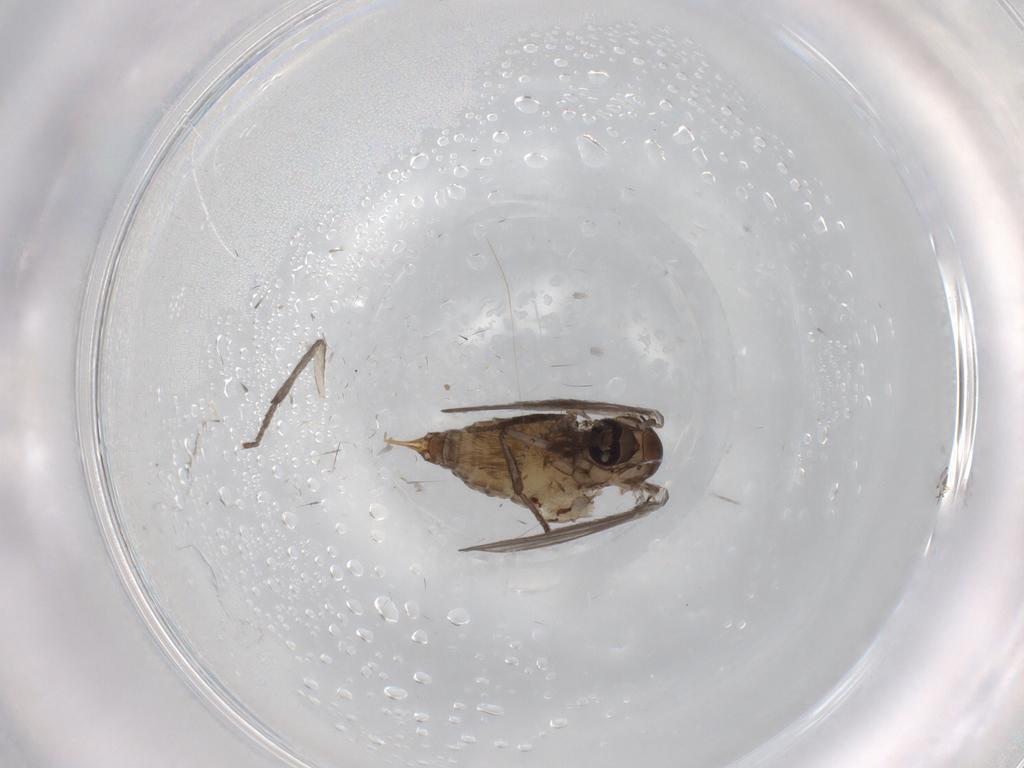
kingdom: Animalia
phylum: Arthropoda
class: Insecta
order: Diptera
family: Psychodidae
